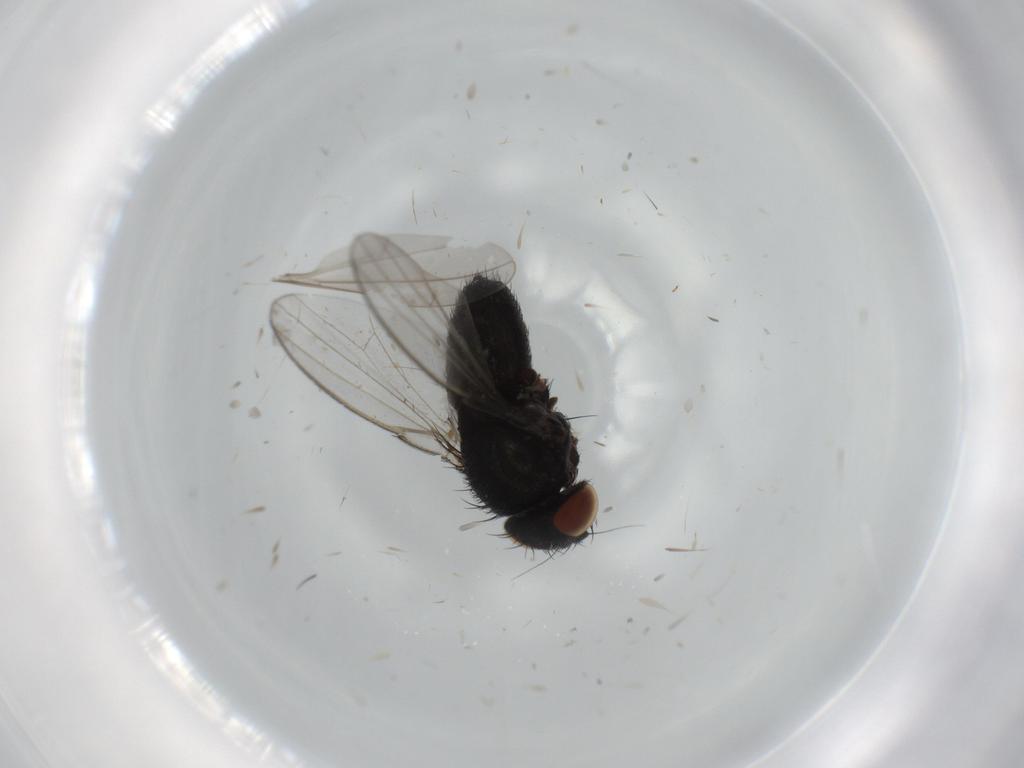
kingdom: Animalia
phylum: Arthropoda
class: Insecta
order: Diptera
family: Milichiidae
